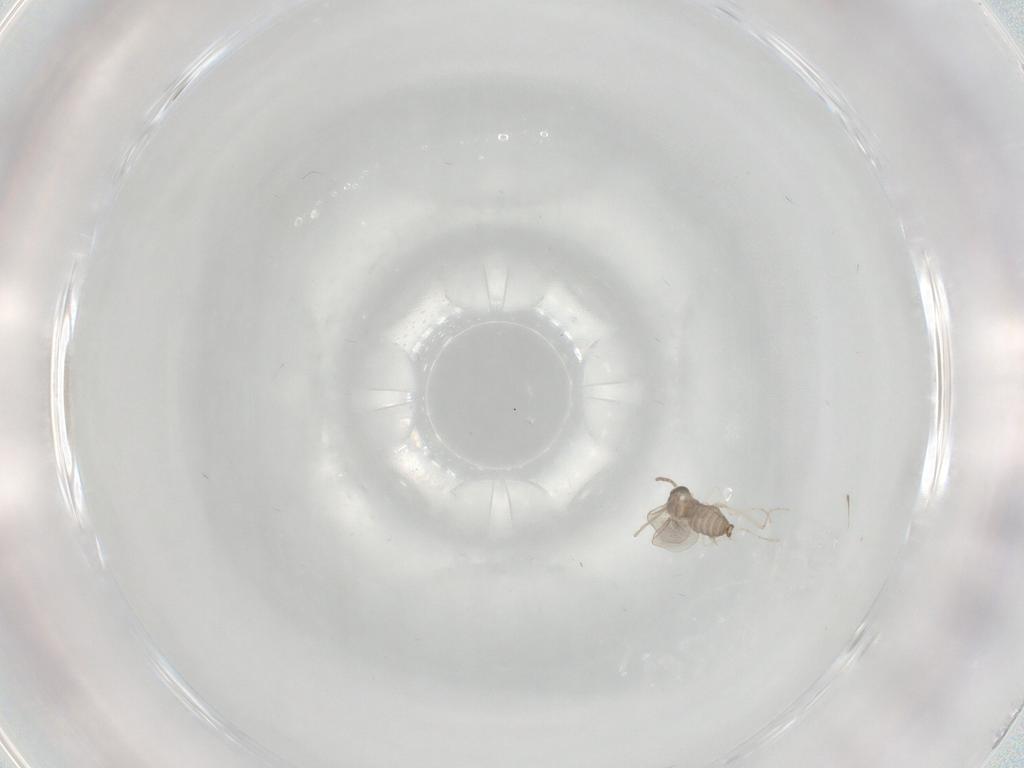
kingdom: Animalia
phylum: Arthropoda
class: Insecta
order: Diptera
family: Cecidomyiidae
